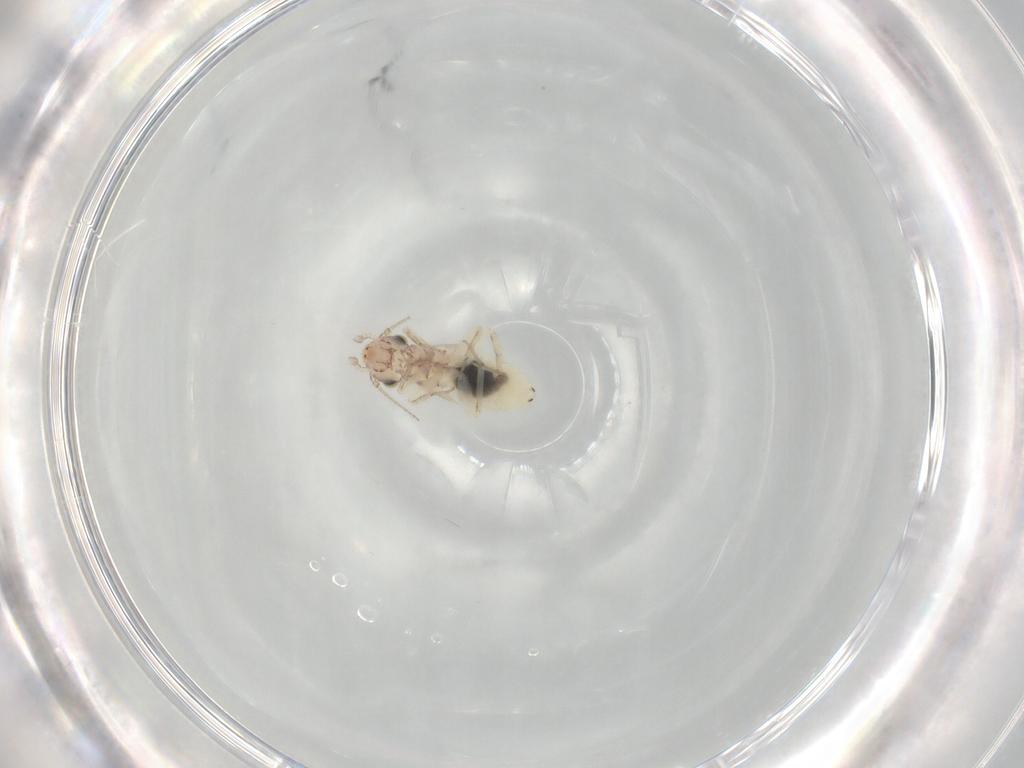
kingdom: Animalia
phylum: Arthropoda
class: Insecta
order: Psocodea
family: Lepidopsocidae
